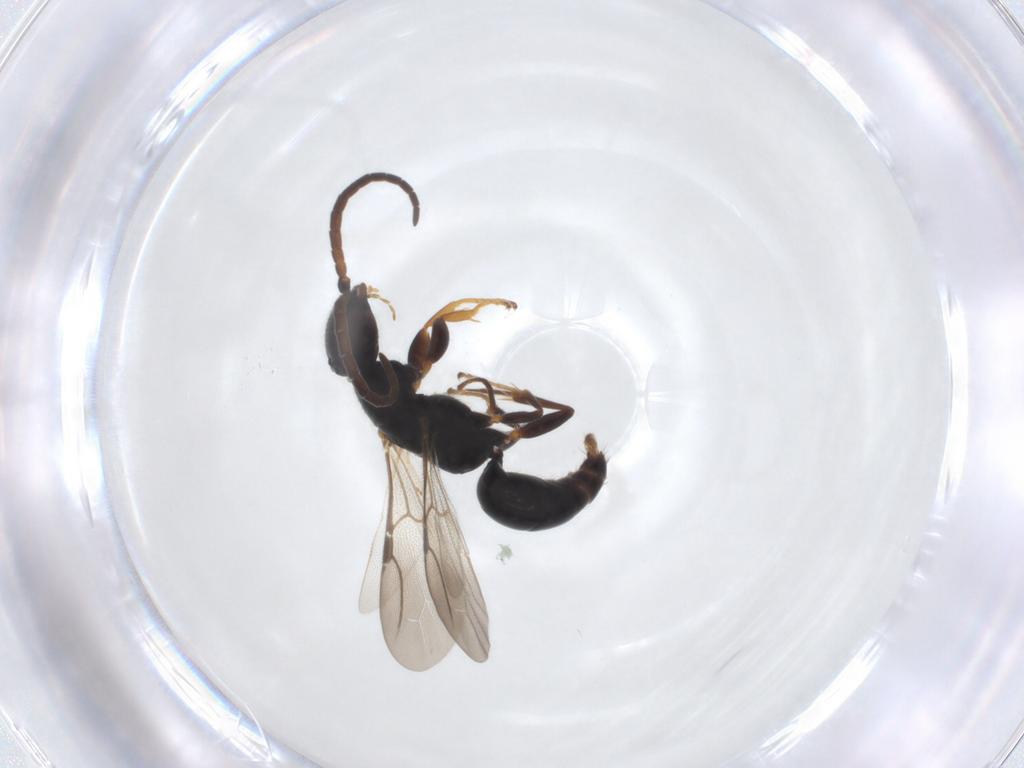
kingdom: Animalia
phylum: Arthropoda
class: Insecta
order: Hymenoptera
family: Bethylidae
